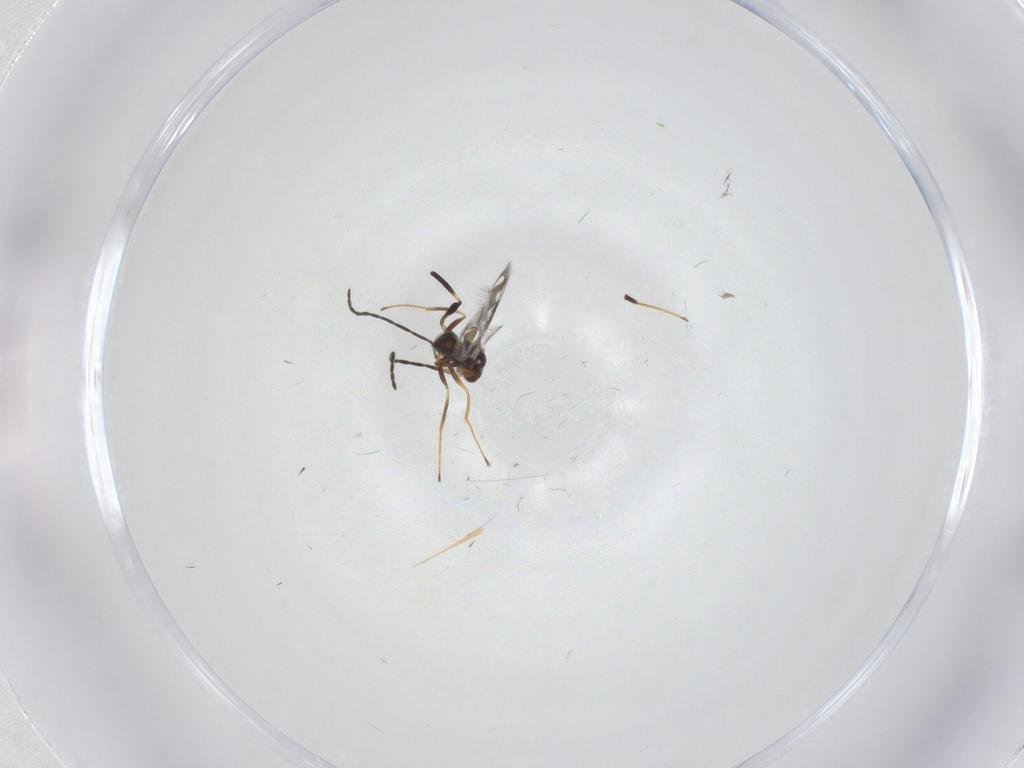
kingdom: Animalia
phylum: Arthropoda
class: Insecta
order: Hymenoptera
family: Mymaridae
